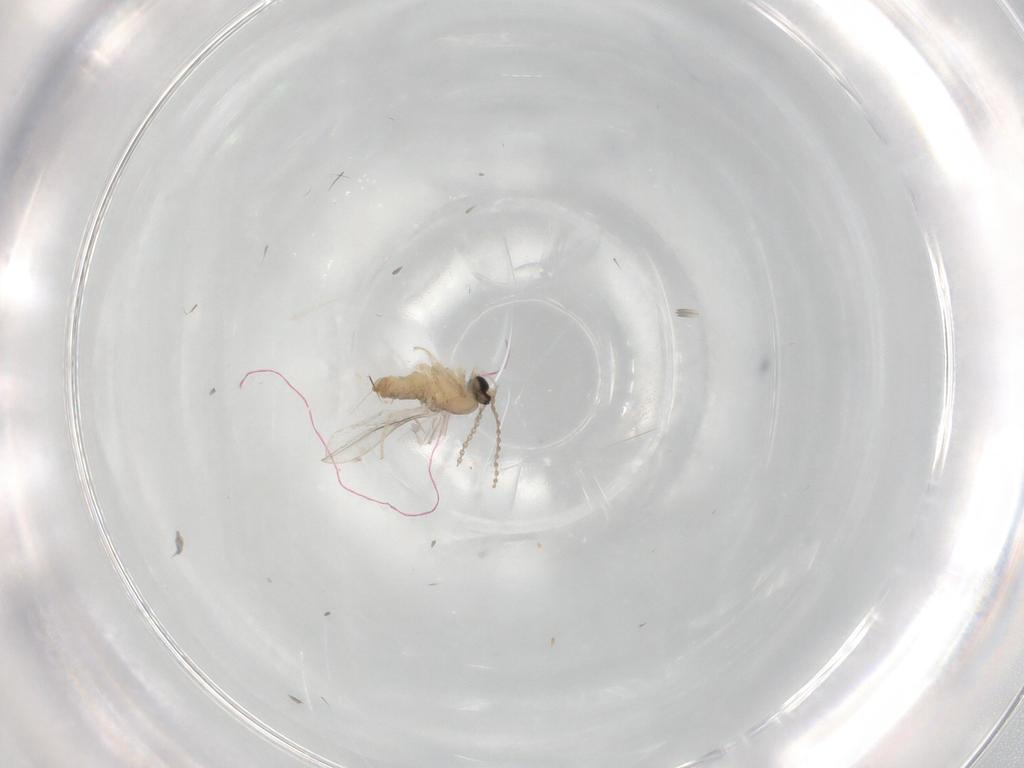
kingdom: Animalia
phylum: Arthropoda
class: Insecta
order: Diptera
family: Cecidomyiidae
